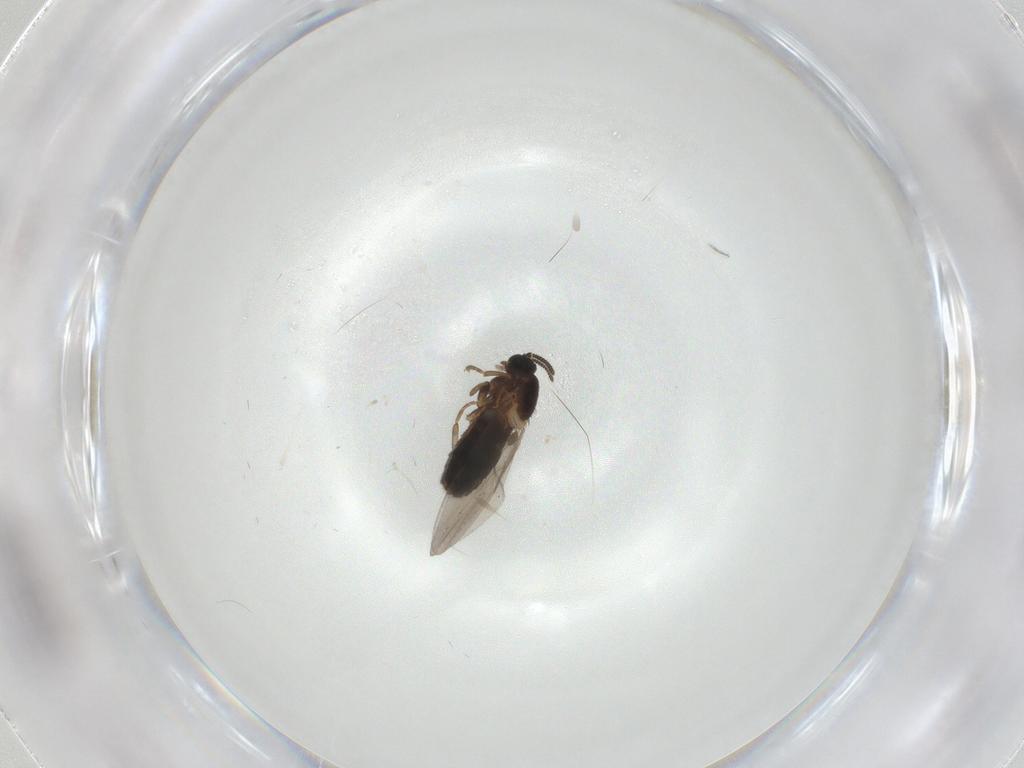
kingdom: Animalia
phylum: Arthropoda
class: Insecta
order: Diptera
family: Scatopsidae
